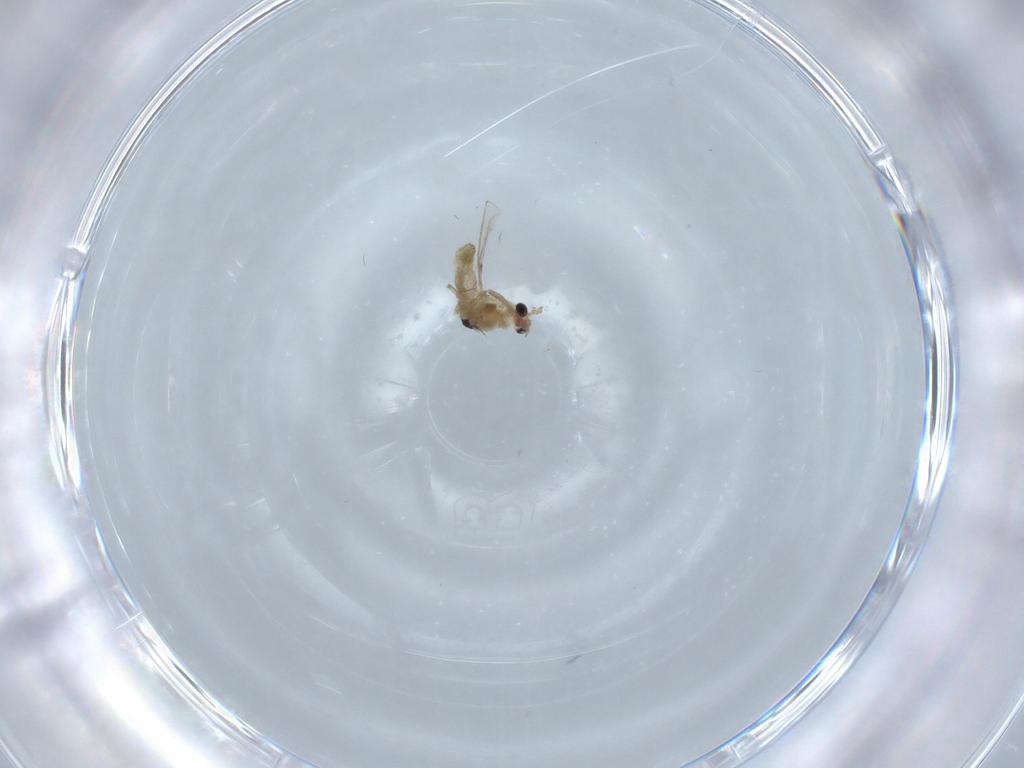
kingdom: Animalia
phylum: Arthropoda
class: Insecta
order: Diptera
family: Chironomidae
